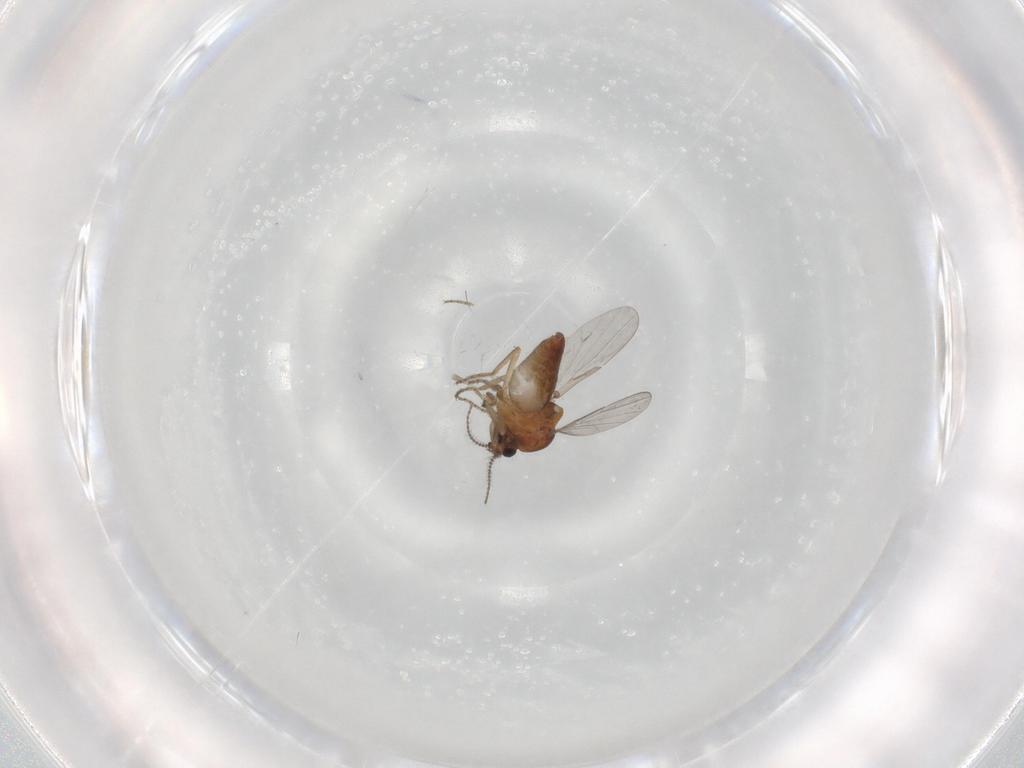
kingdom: Animalia
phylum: Arthropoda
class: Insecta
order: Diptera
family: Ceratopogonidae
